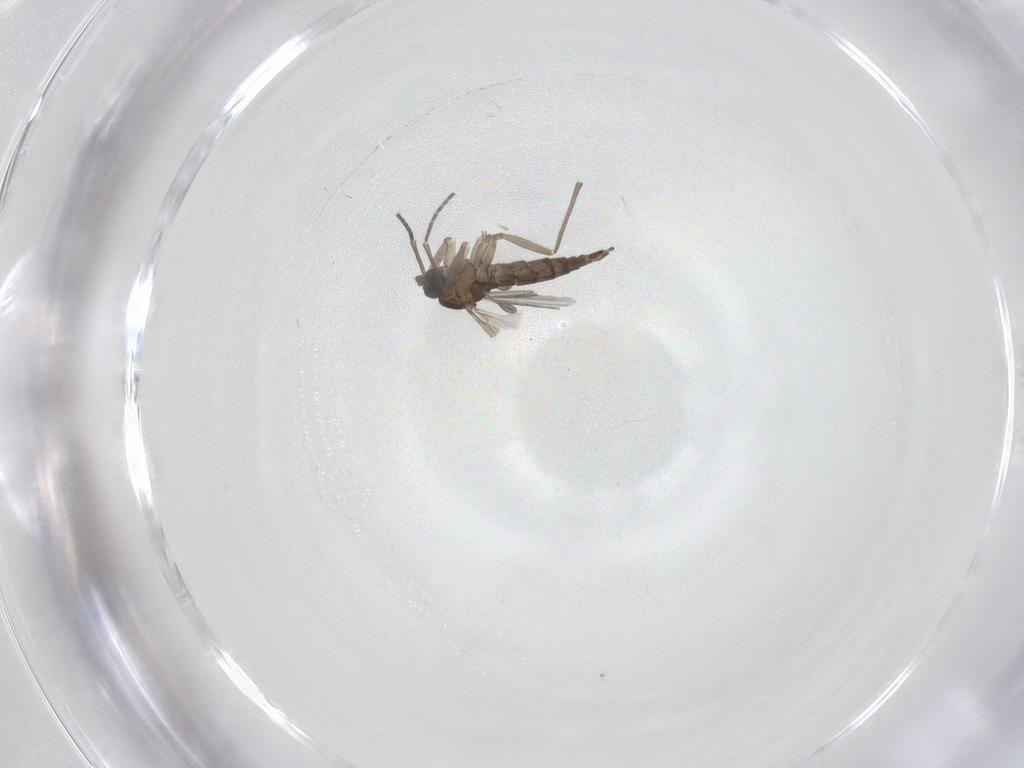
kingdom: Animalia
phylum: Arthropoda
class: Insecta
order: Diptera
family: Sciaridae
